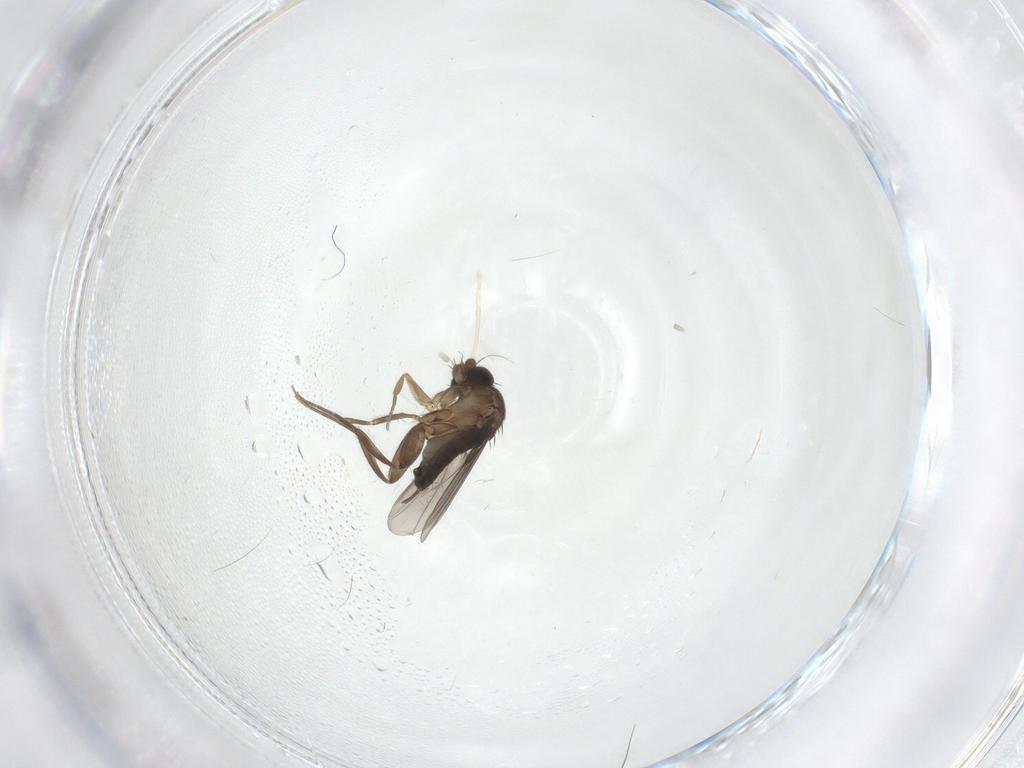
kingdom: Animalia
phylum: Arthropoda
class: Insecta
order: Diptera
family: Phoridae
